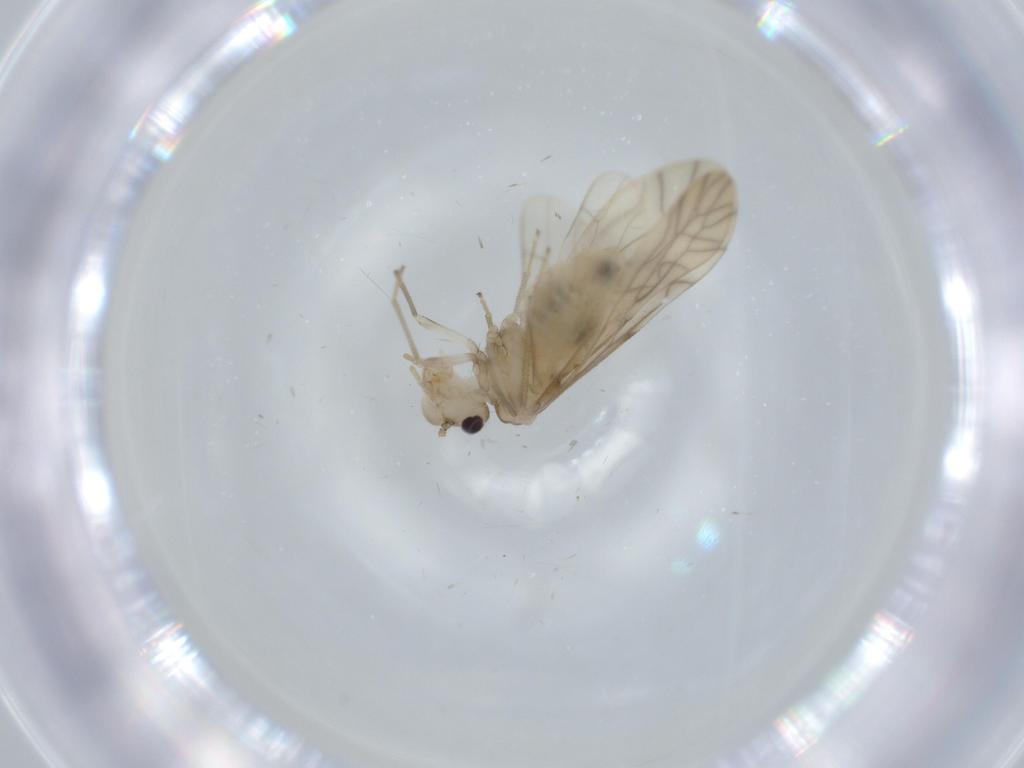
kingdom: Animalia
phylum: Arthropoda
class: Insecta
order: Psocodea
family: Caeciliusidae
